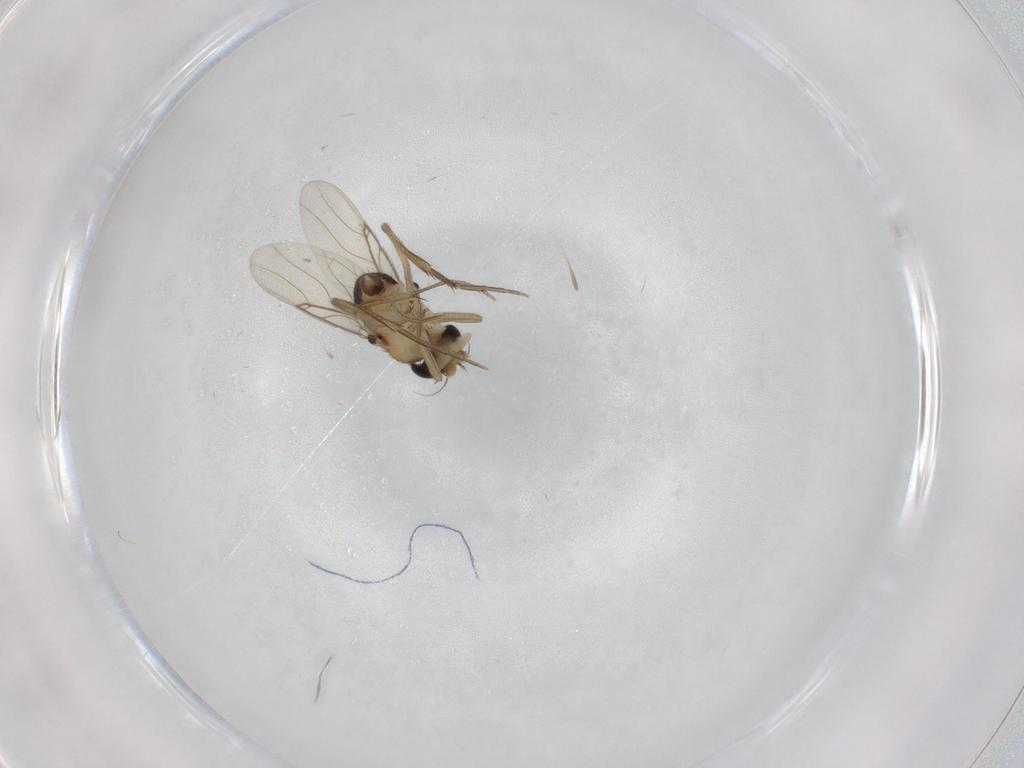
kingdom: Animalia
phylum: Arthropoda
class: Insecta
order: Diptera
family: Phoridae
